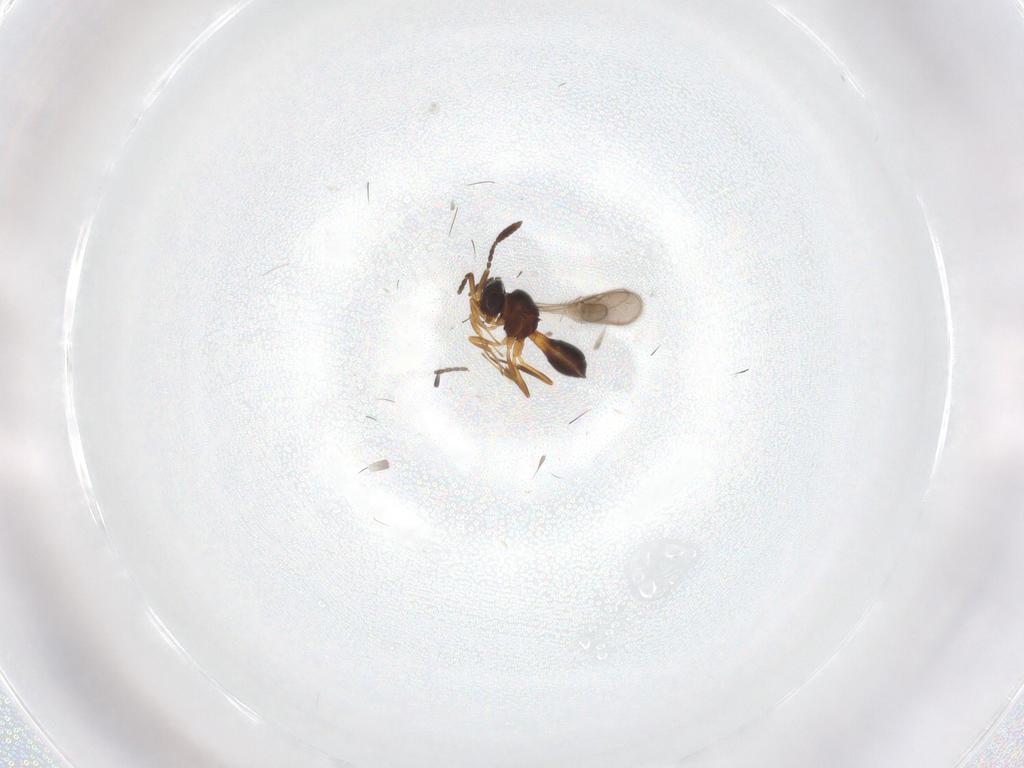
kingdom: Animalia
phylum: Arthropoda
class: Insecta
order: Hymenoptera
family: Scelionidae
